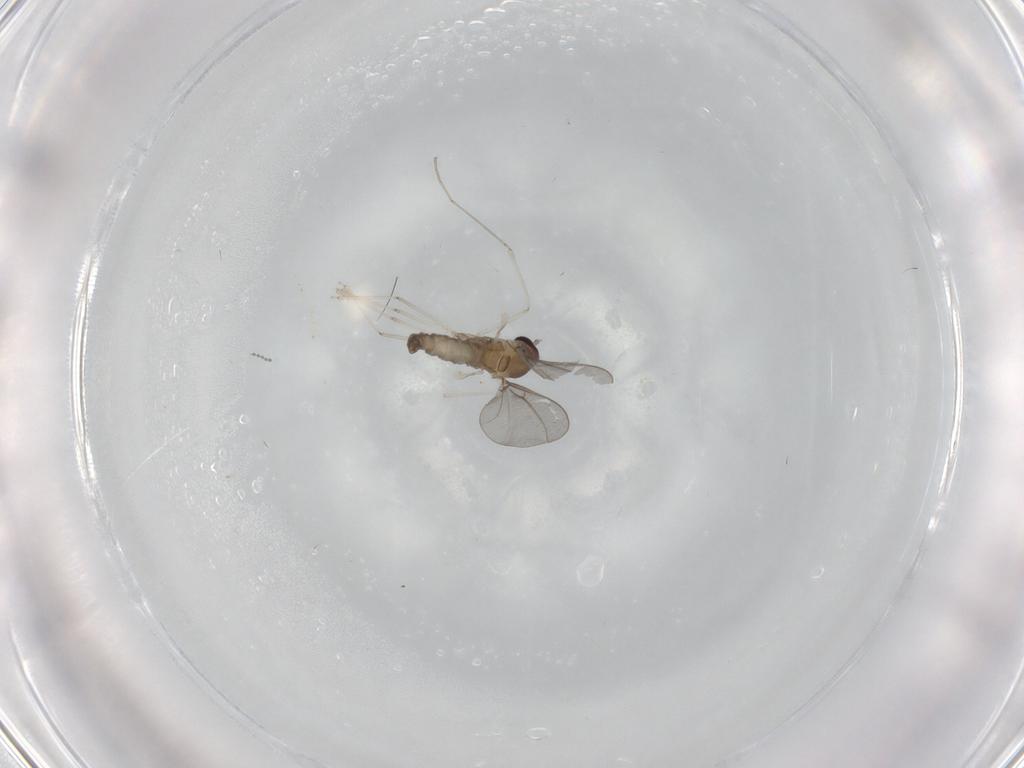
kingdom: Animalia
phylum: Arthropoda
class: Insecta
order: Diptera
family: Cecidomyiidae
